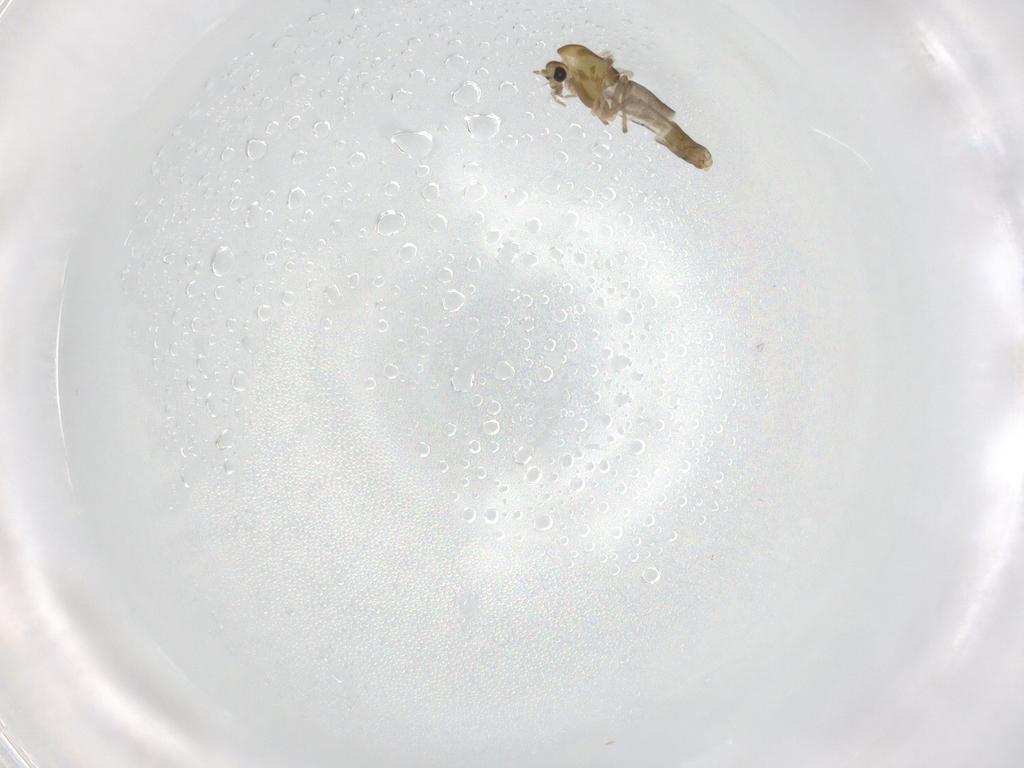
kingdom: Animalia
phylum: Arthropoda
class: Insecta
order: Diptera
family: Chironomidae
